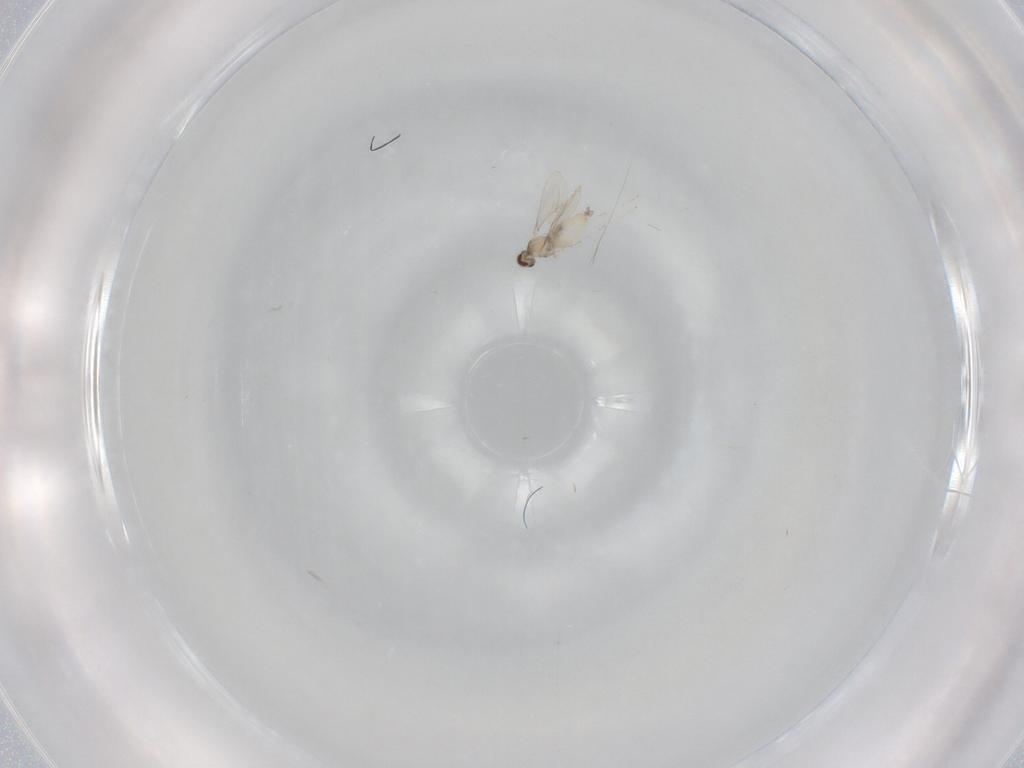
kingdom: Animalia
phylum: Arthropoda
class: Insecta
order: Diptera
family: Cecidomyiidae
